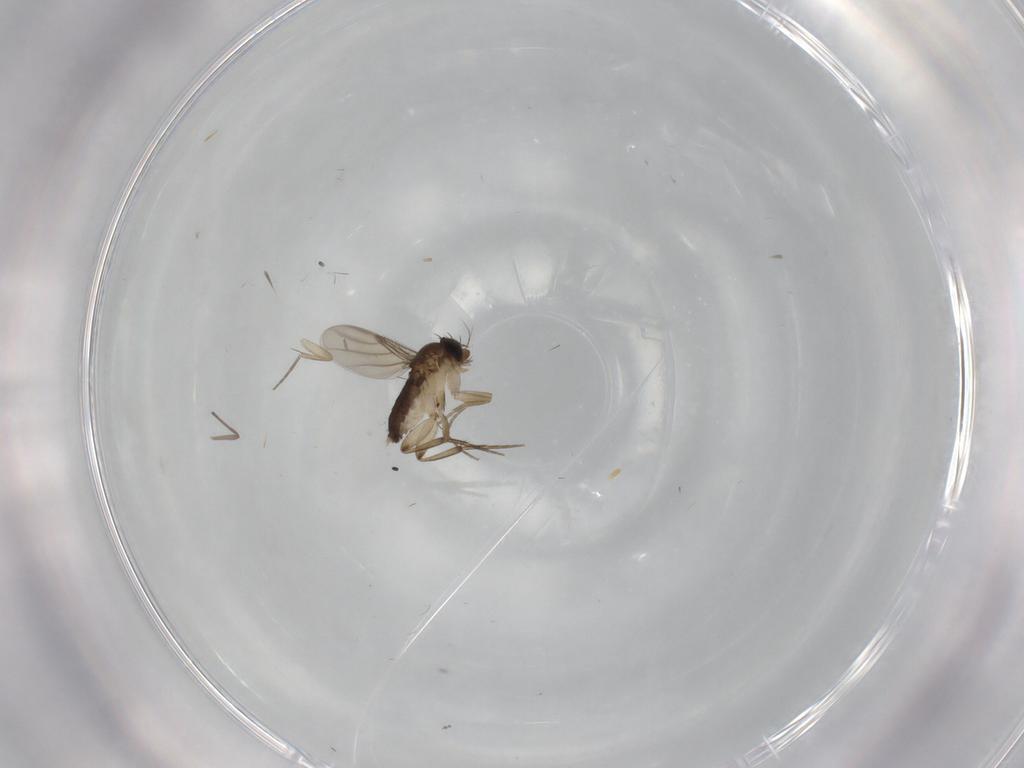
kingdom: Animalia
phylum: Arthropoda
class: Insecta
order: Diptera
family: Phoridae
